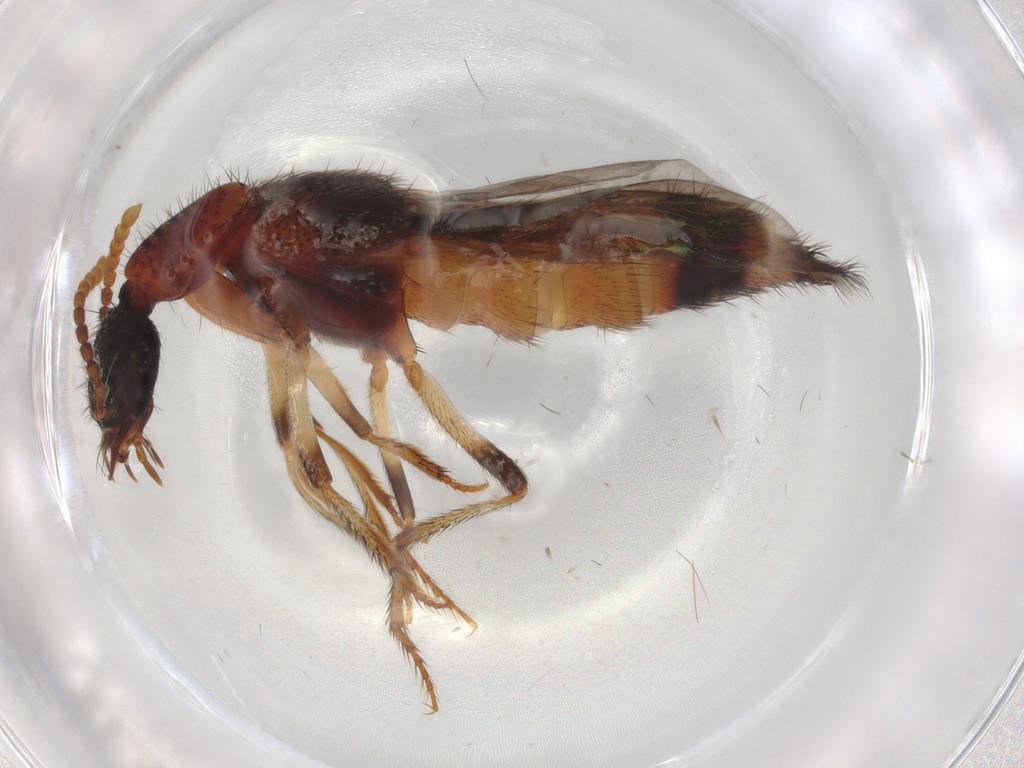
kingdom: Animalia
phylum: Arthropoda
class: Insecta
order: Coleoptera
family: Staphylinidae
